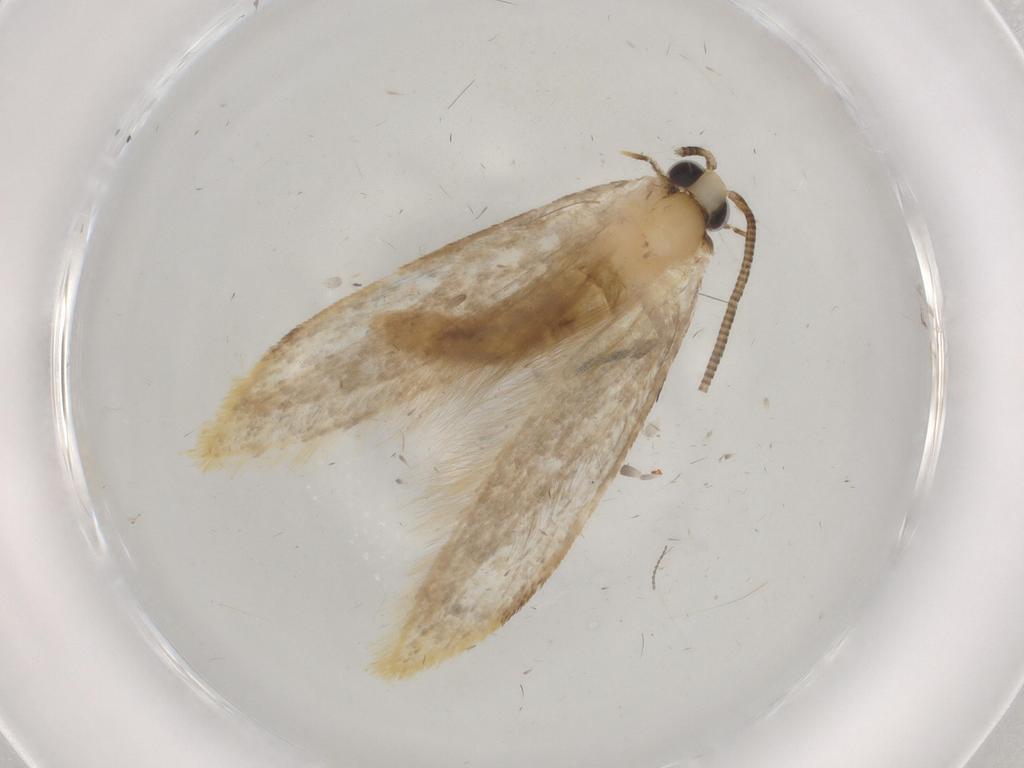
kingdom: Animalia
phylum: Arthropoda
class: Insecta
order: Lepidoptera
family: Tineidae
